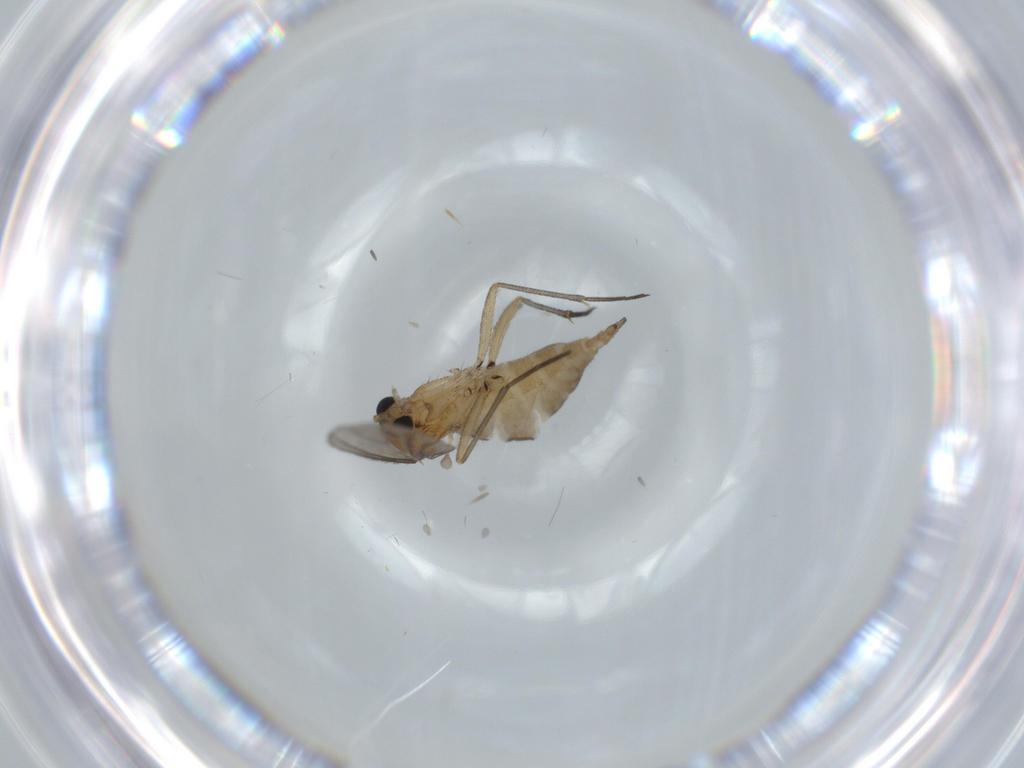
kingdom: Animalia
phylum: Arthropoda
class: Insecta
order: Diptera
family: Sciaridae
